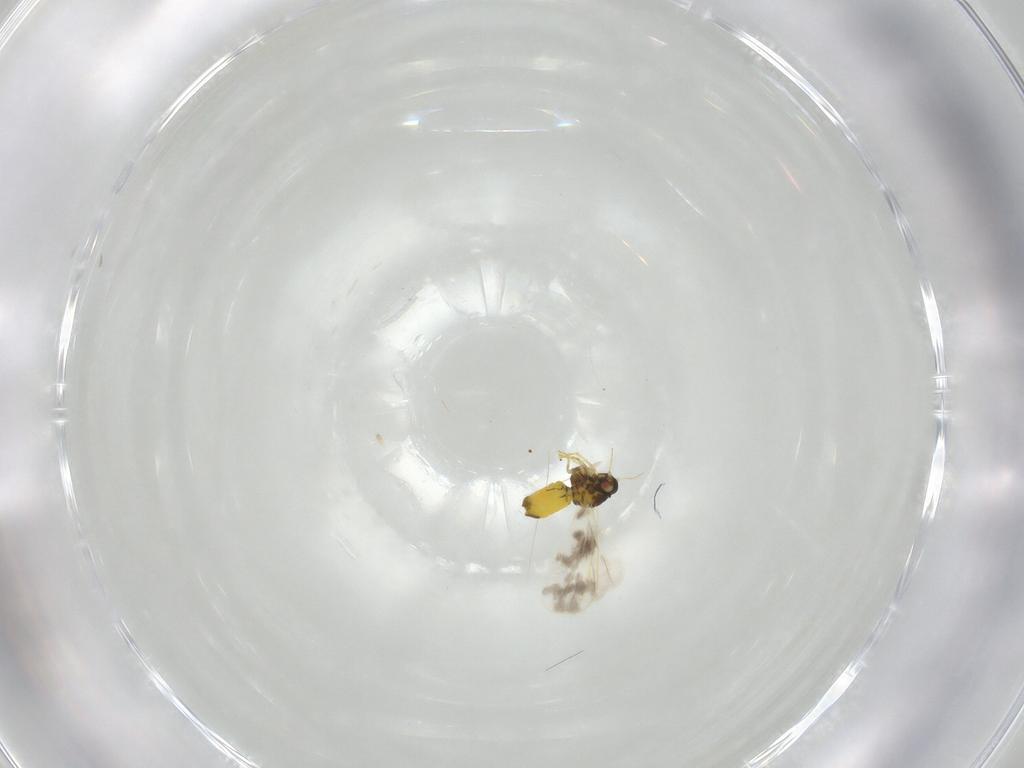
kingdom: Animalia
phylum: Arthropoda
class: Insecta
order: Hemiptera
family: Aleyrodidae
